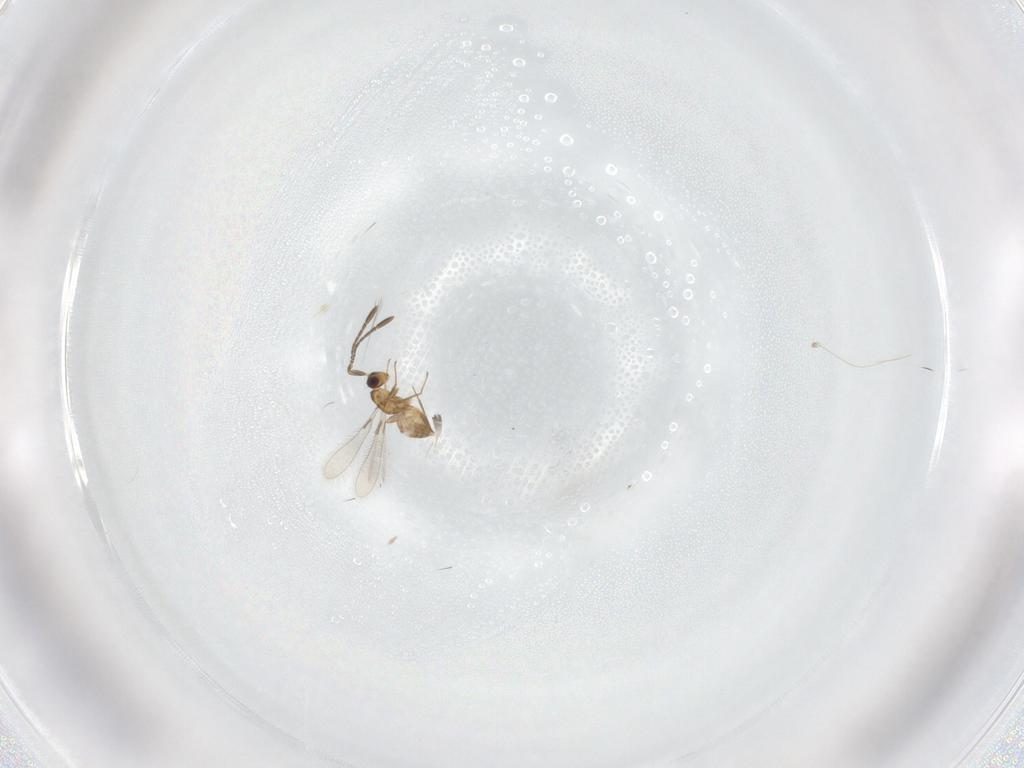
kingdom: Animalia
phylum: Arthropoda
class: Insecta
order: Hymenoptera
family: Mymaridae
